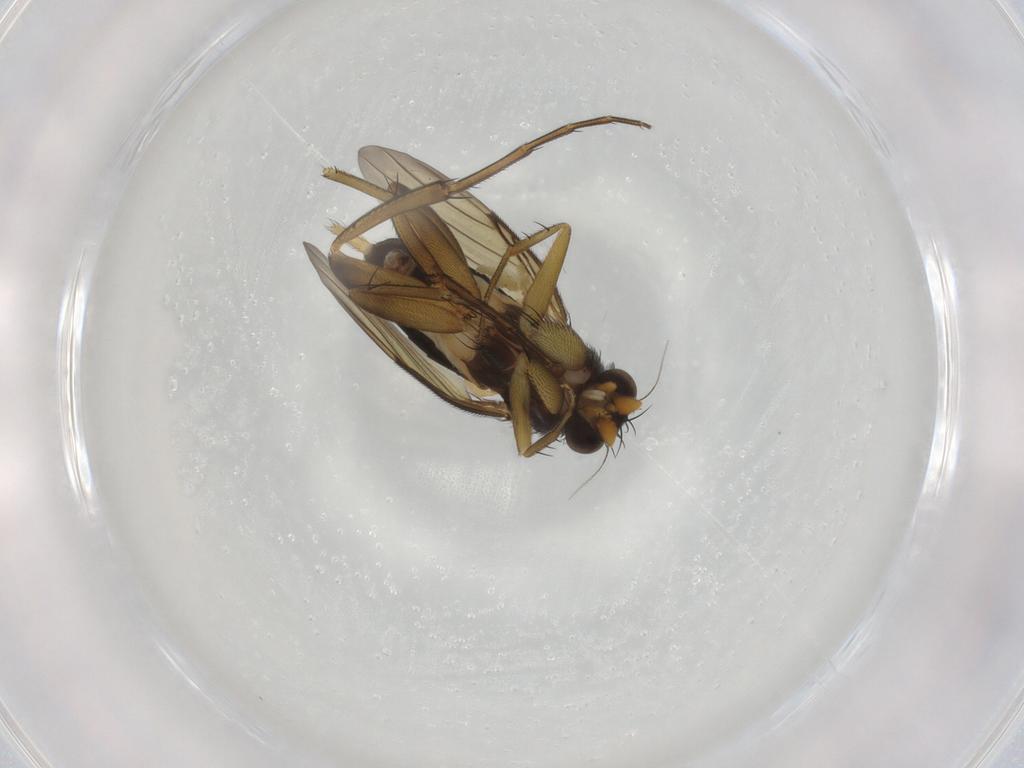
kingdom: Animalia
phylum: Arthropoda
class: Insecta
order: Diptera
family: Phoridae
